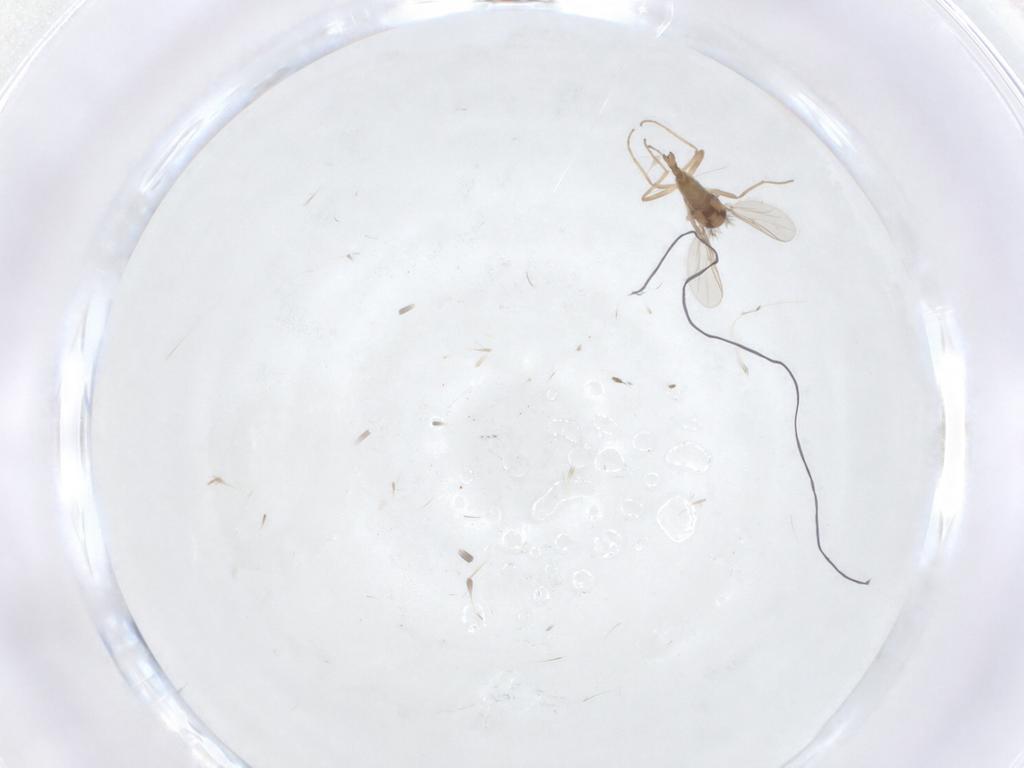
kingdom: Animalia
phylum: Arthropoda
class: Insecta
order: Diptera
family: Chironomidae
